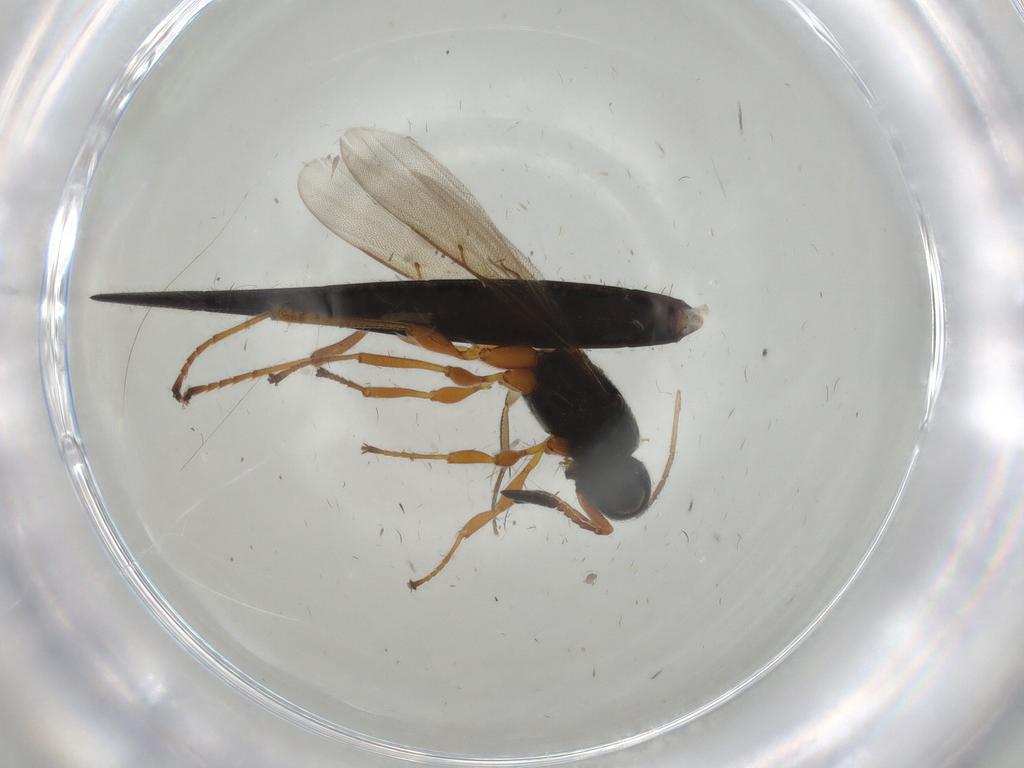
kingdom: Animalia
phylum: Arthropoda
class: Insecta
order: Hymenoptera
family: Scelionidae
